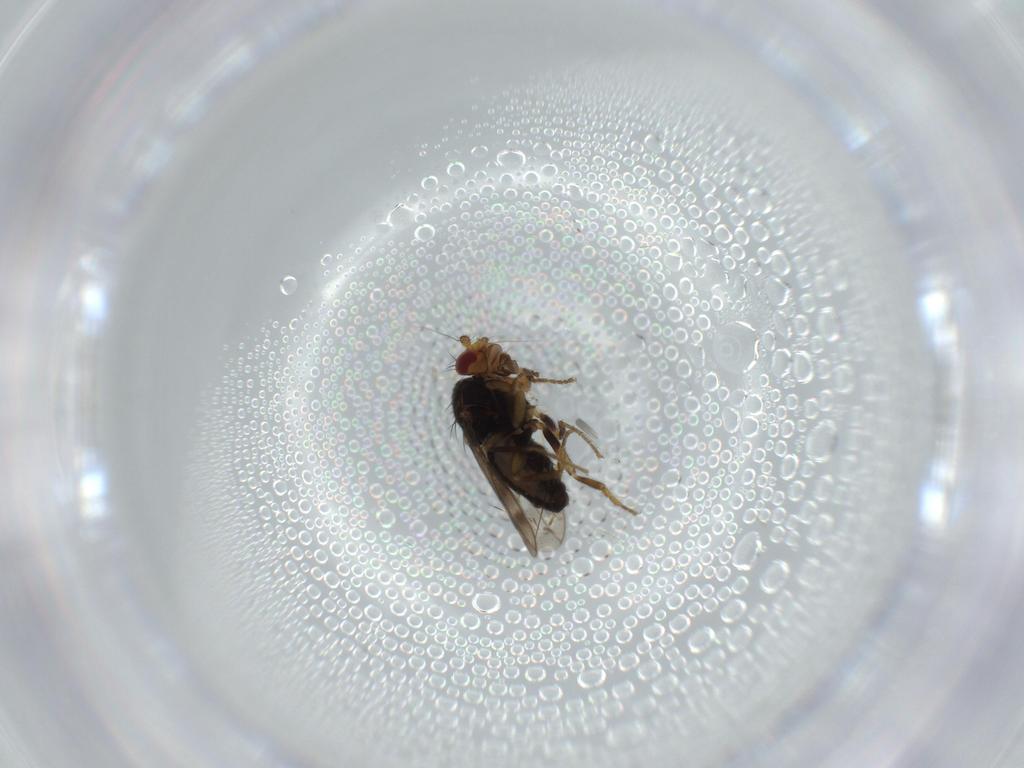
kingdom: Animalia
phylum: Arthropoda
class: Insecta
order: Diptera
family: Sphaeroceridae
